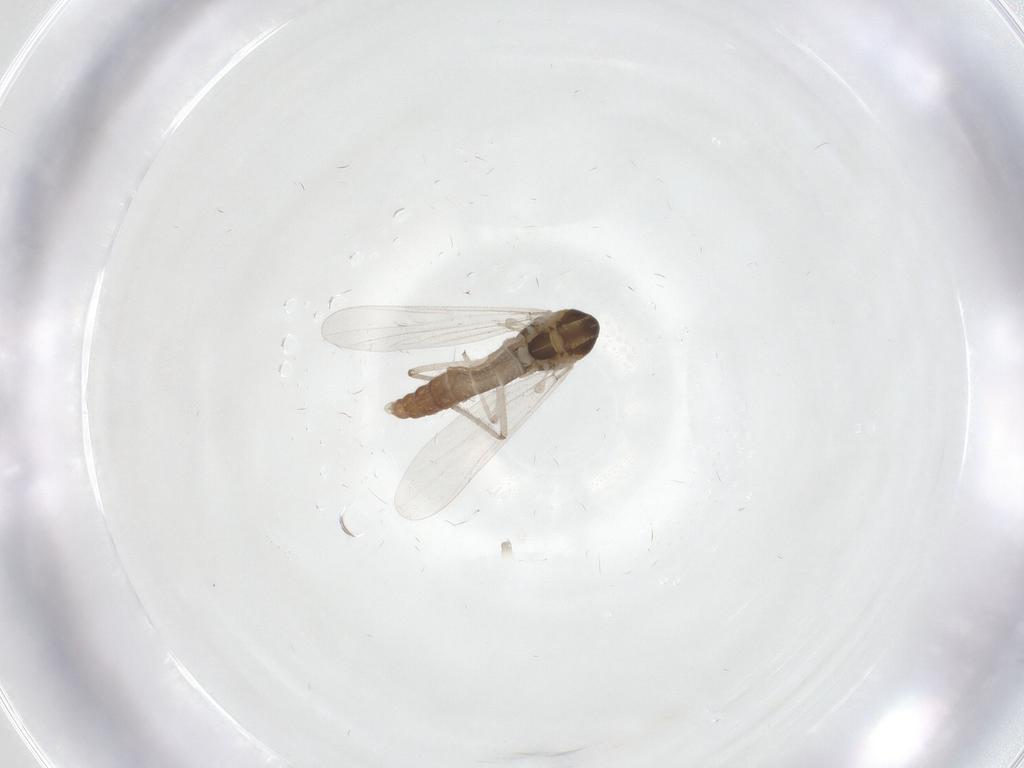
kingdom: Animalia
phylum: Arthropoda
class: Insecta
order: Diptera
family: Chironomidae
